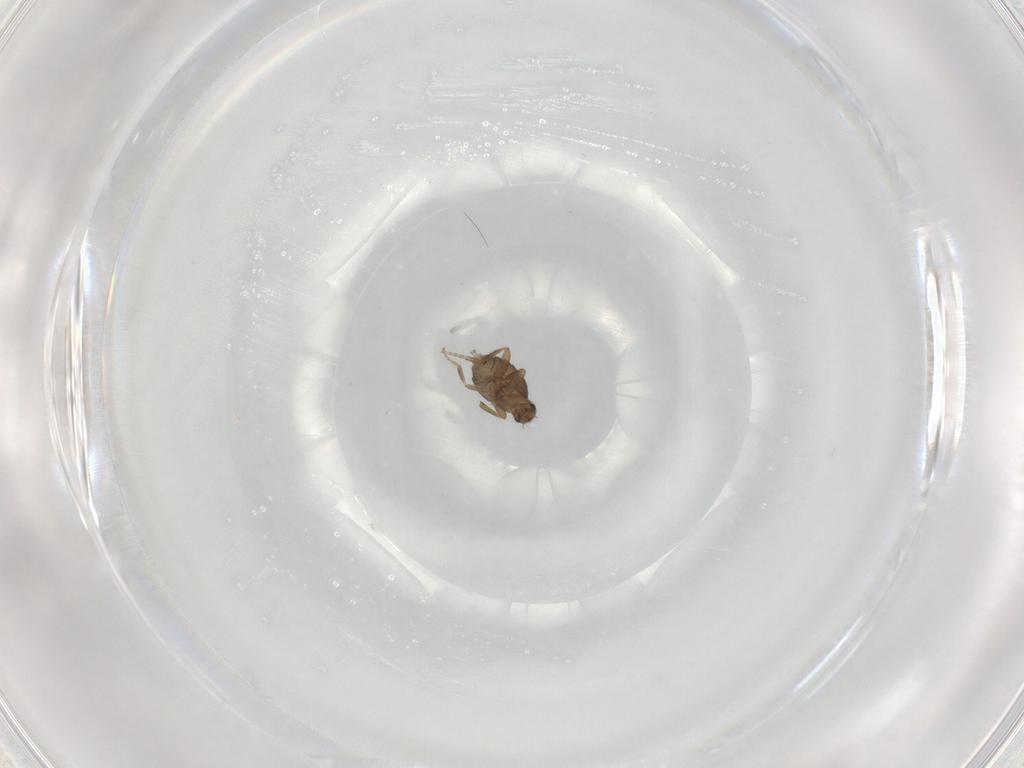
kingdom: Animalia
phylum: Arthropoda
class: Insecta
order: Diptera
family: Phoridae
